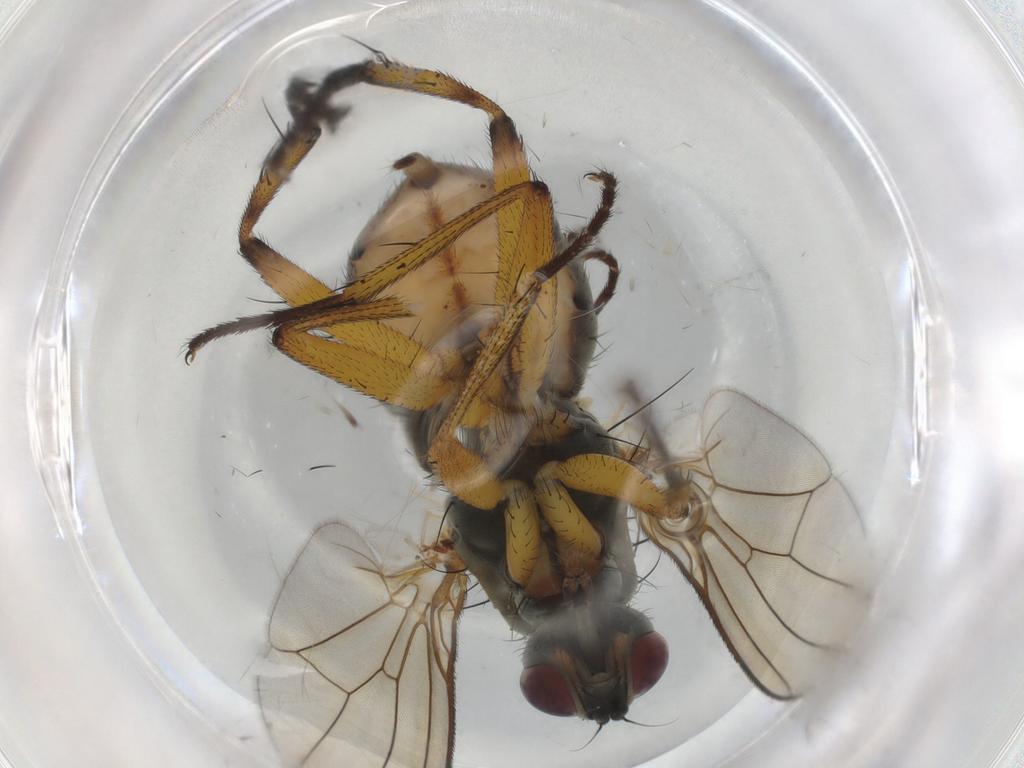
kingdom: Animalia
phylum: Arthropoda
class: Insecta
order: Diptera
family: Muscidae
